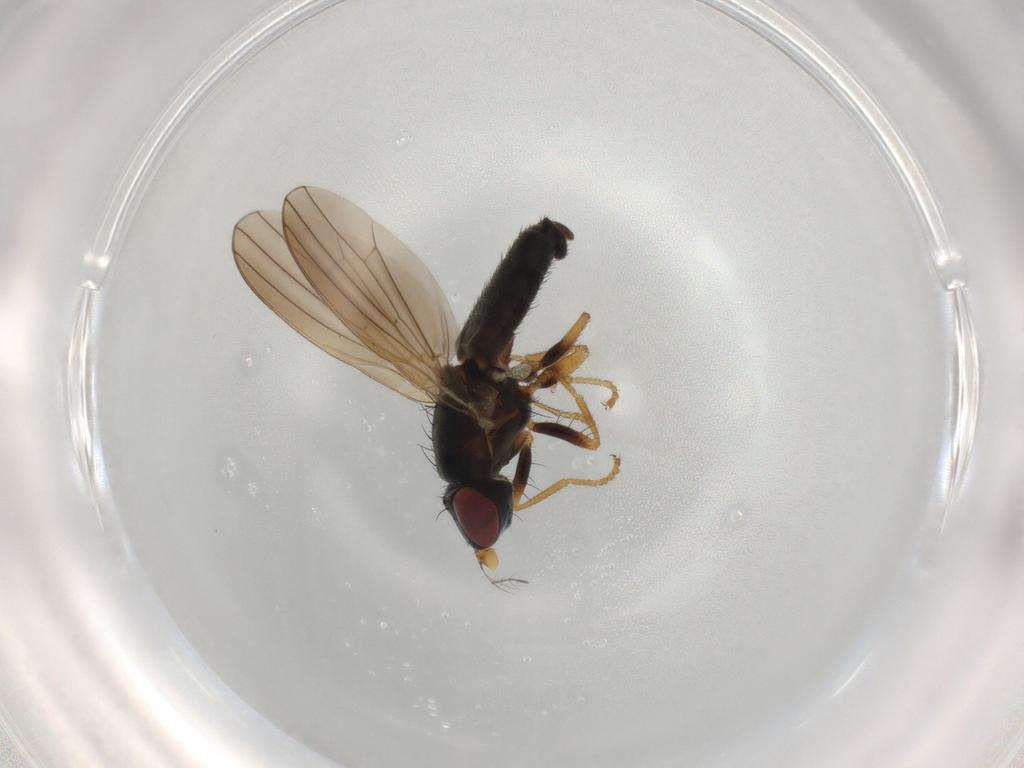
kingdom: Animalia
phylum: Arthropoda
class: Insecta
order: Diptera
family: Chamaemyiidae
